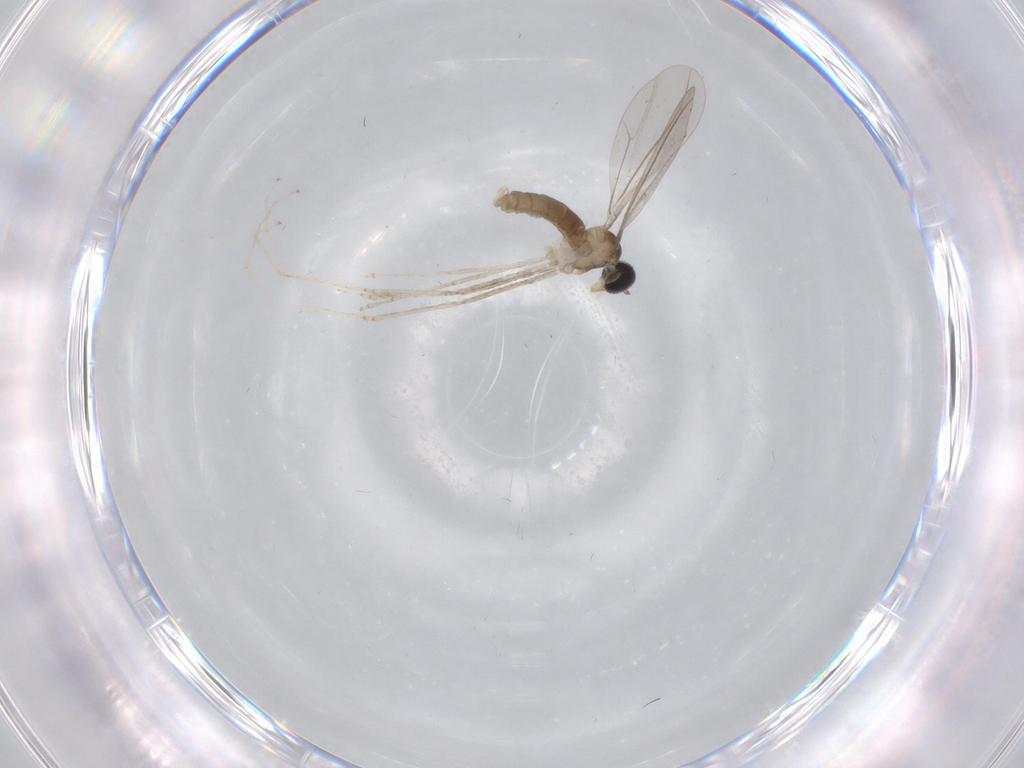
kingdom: Animalia
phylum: Arthropoda
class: Insecta
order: Diptera
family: Cecidomyiidae
